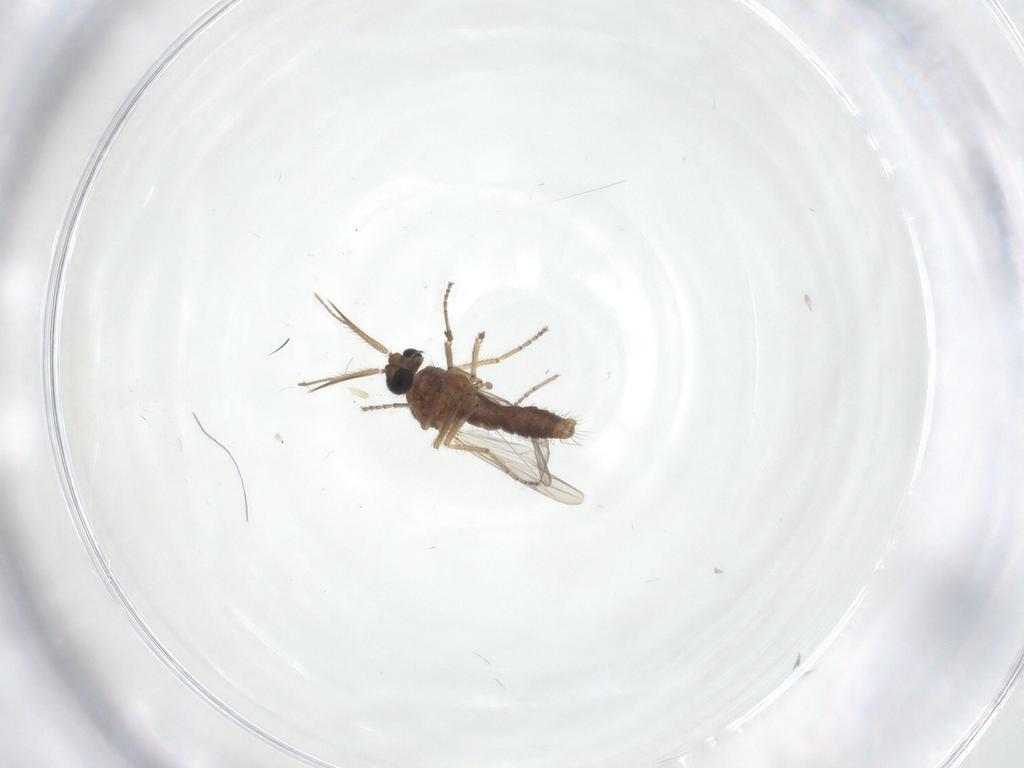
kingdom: Animalia
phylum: Arthropoda
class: Insecta
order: Diptera
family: Ceratopogonidae
